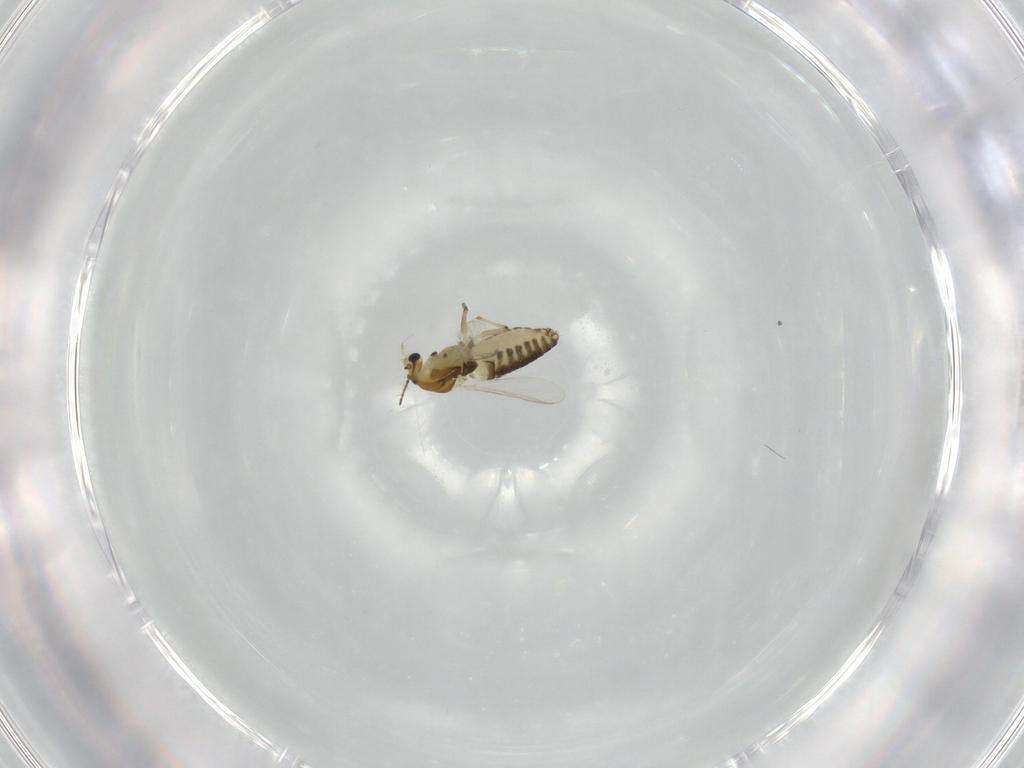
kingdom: Animalia
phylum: Arthropoda
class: Insecta
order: Diptera
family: Chironomidae
